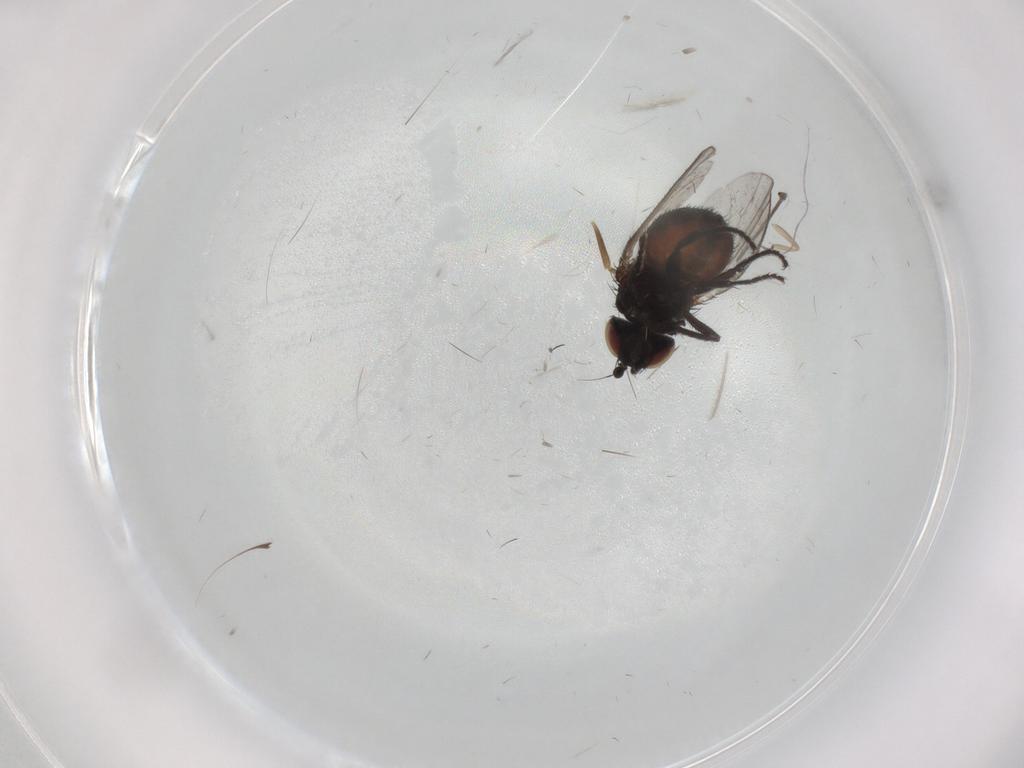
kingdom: Animalia
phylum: Arthropoda
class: Insecta
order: Diptera
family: Milichiidae
